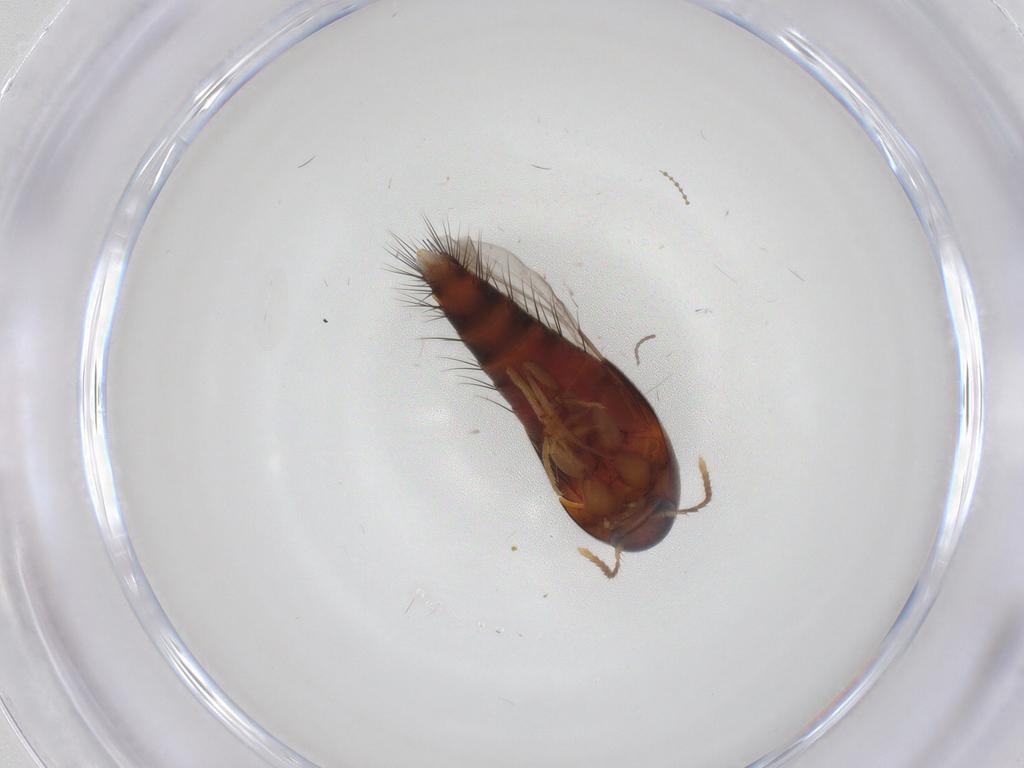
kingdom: Animalia
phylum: Arthropoda
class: Insecta
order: Coleoptera
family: Staphylinidae
